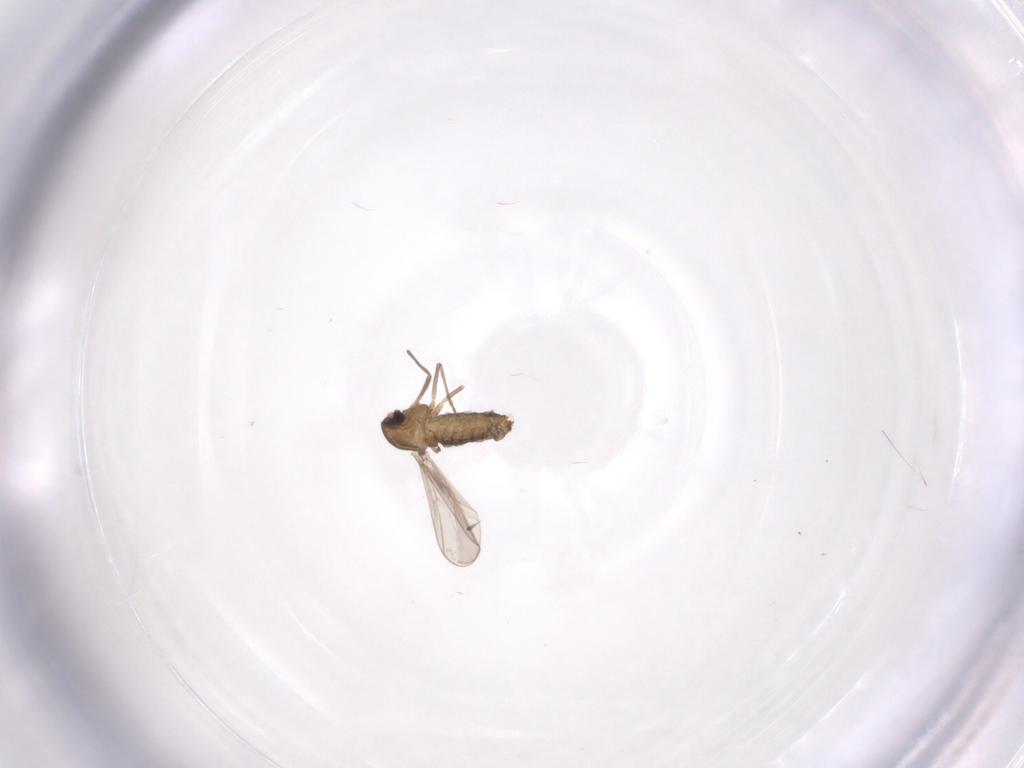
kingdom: Animalia
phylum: Arthropoda
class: Insecta
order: Diptera
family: Chironomidae
